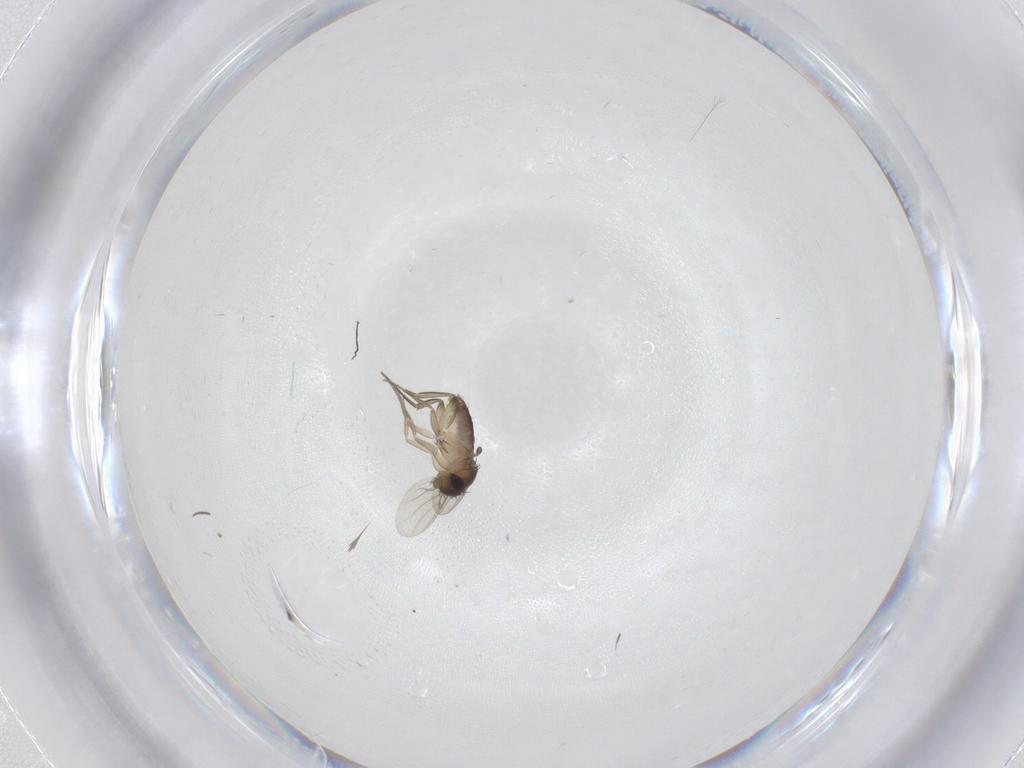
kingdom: Animalia
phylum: Arthropoda
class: Insecta
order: Diptera
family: Phoridae
